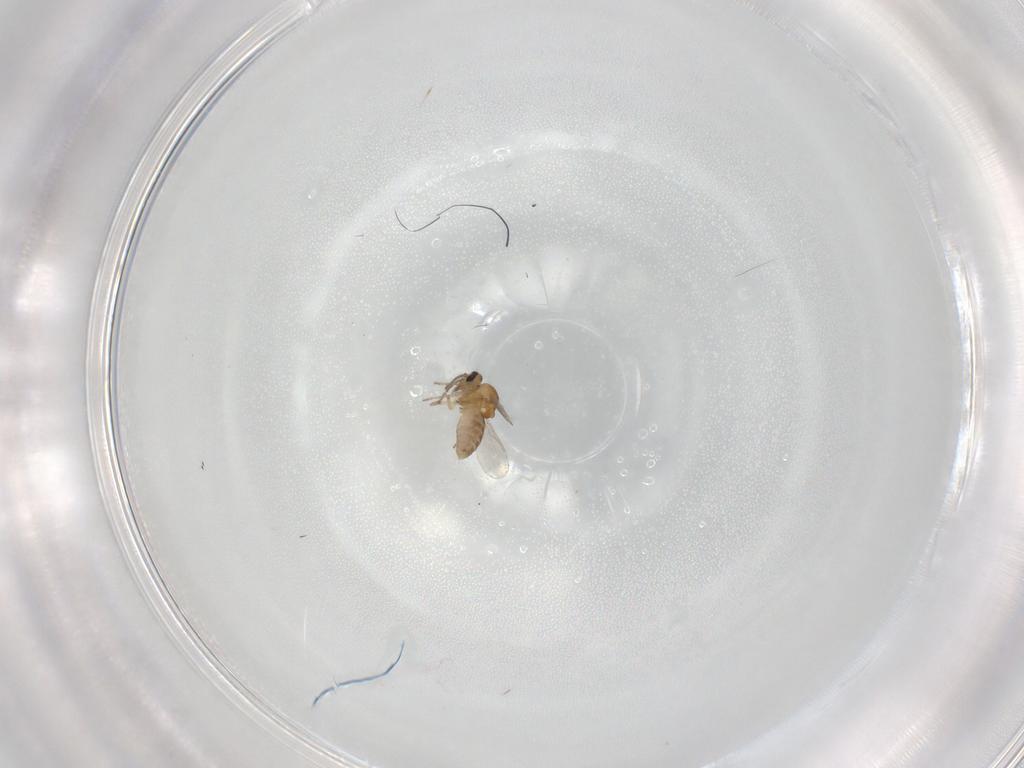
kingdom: Animalia
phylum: Arthropoda
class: Insecta
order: Diptera
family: Ceratopogonidae
